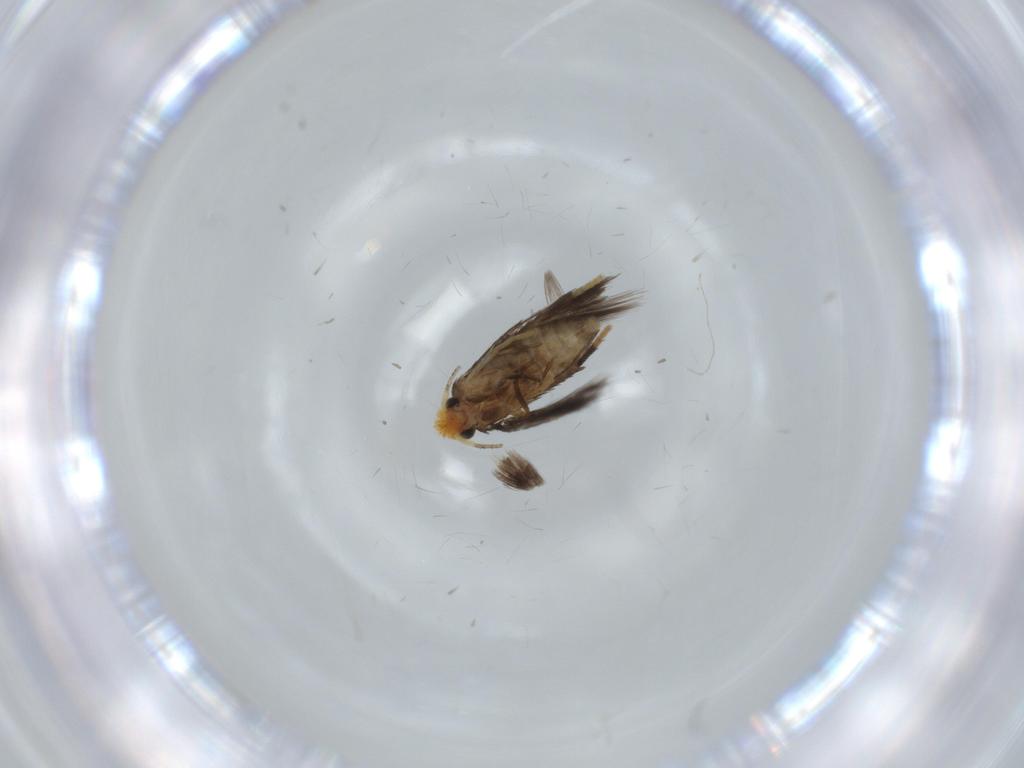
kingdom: Animalia
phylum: Arthropoda
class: Insecta
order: Lepidoptera
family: Nepticulidae
